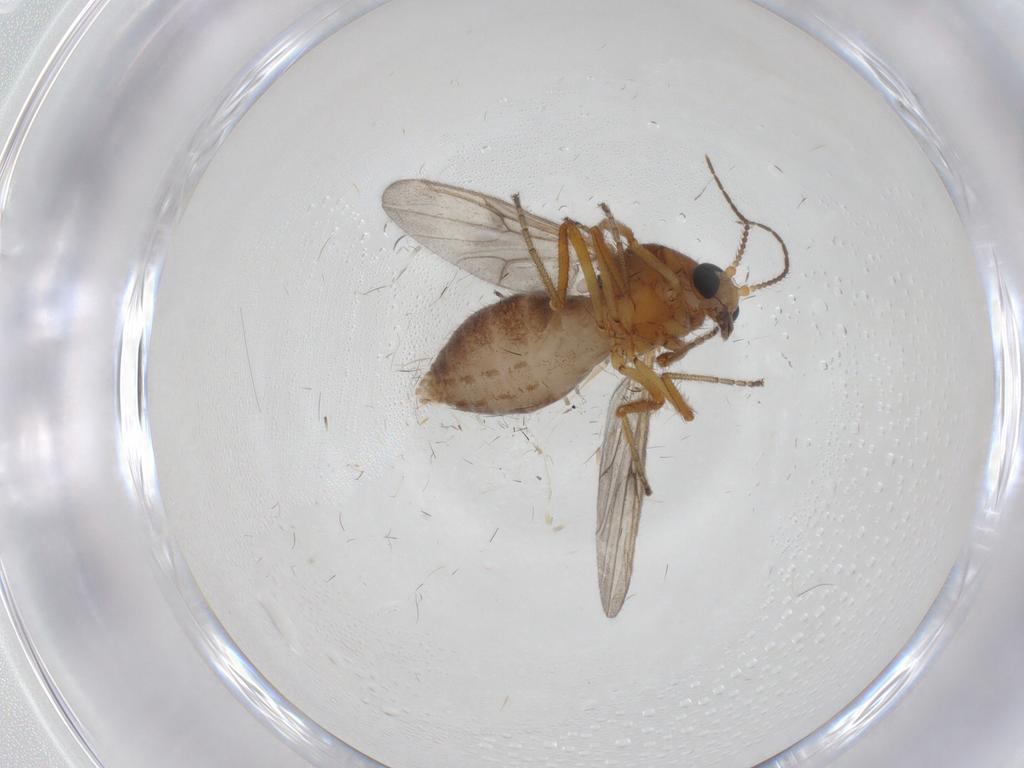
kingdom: Animalia
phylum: Arthropoda
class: Insecta
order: Diptera
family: Ceratopogonidae
